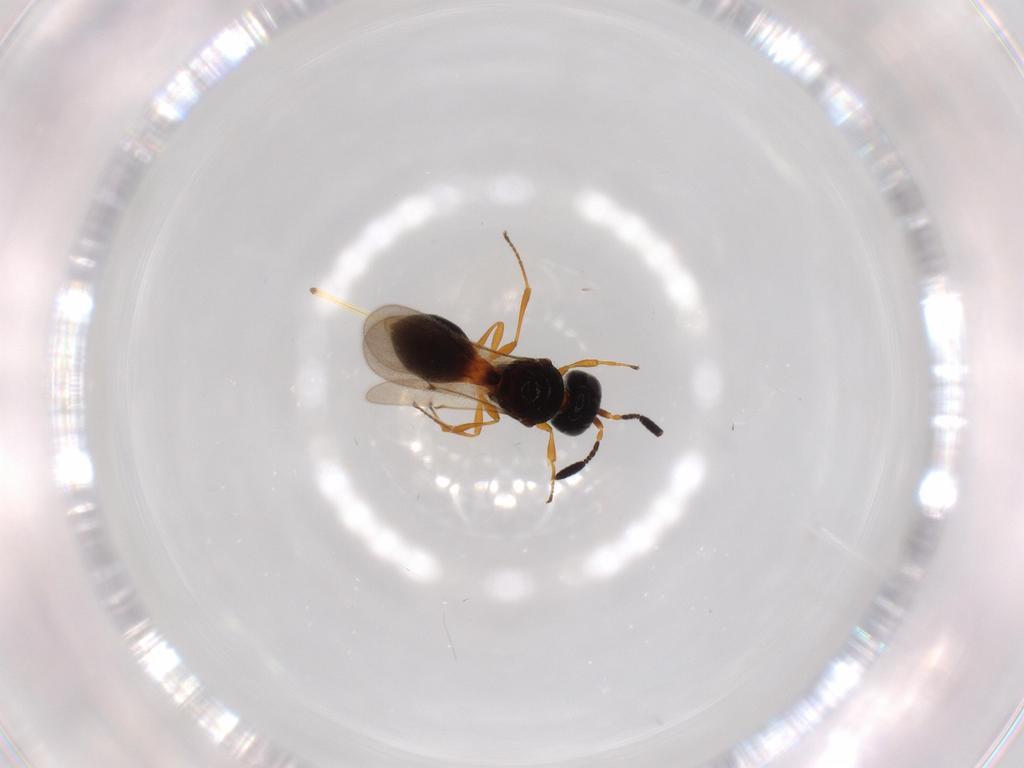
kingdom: Animalia
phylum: Arthropoda
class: Insecta
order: Hymenoptera
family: Scelionidae
